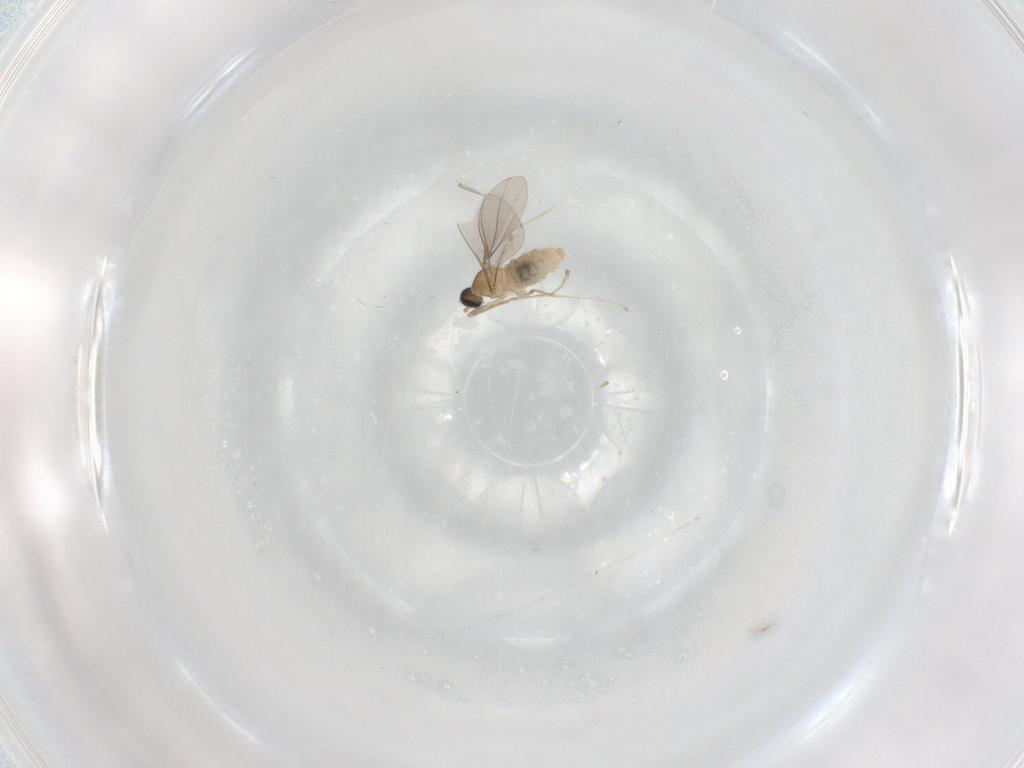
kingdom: Animalia
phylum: Arthropoda
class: Insecta
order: Diptera
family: Cecidomyiidae
